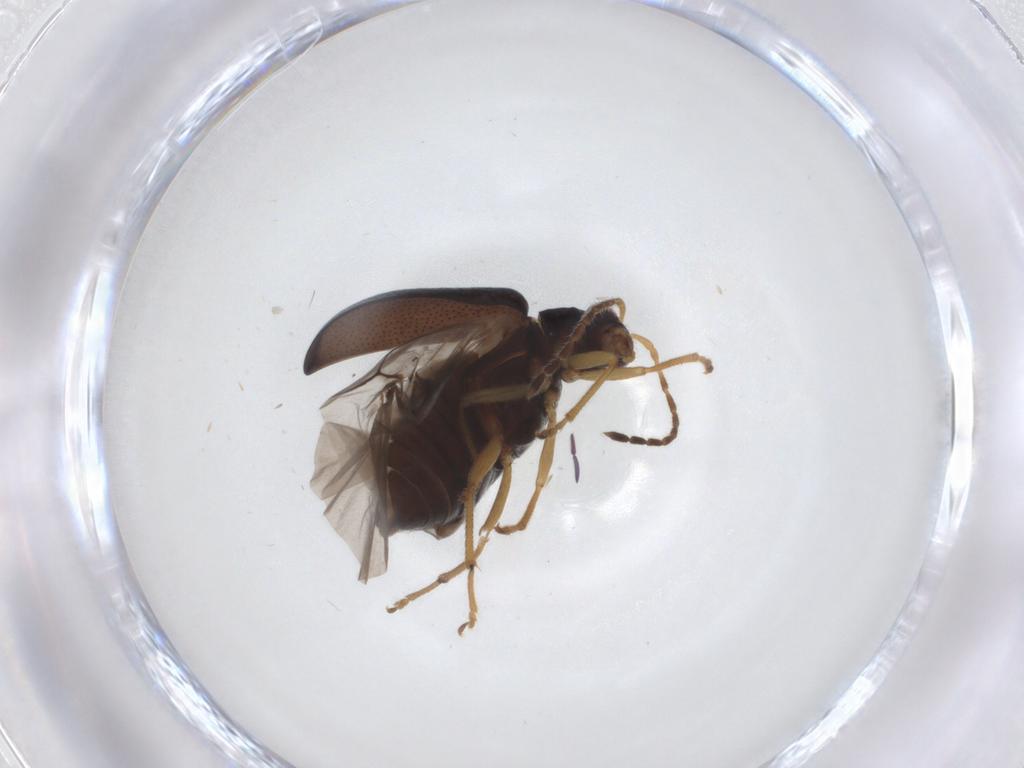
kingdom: Animalia
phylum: Arthropoda
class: Insecta
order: Coleoptera
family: Chrysomelidae
